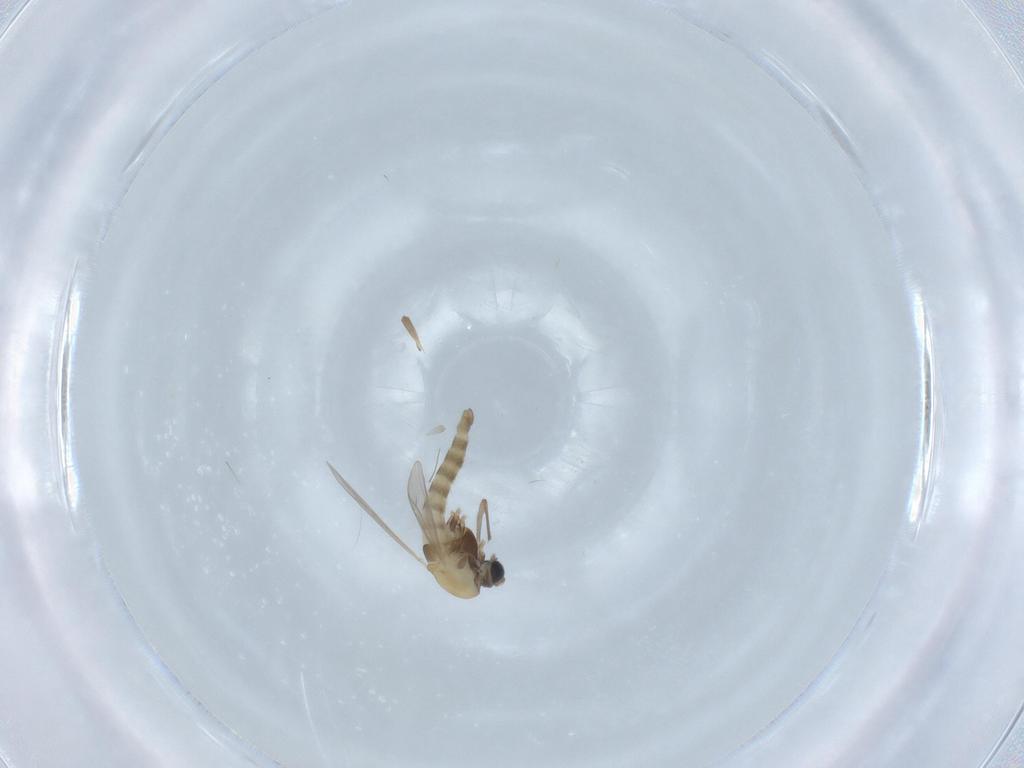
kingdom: Animalia
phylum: Arthropoda
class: Insecta
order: Diptera
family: Chironomidae
